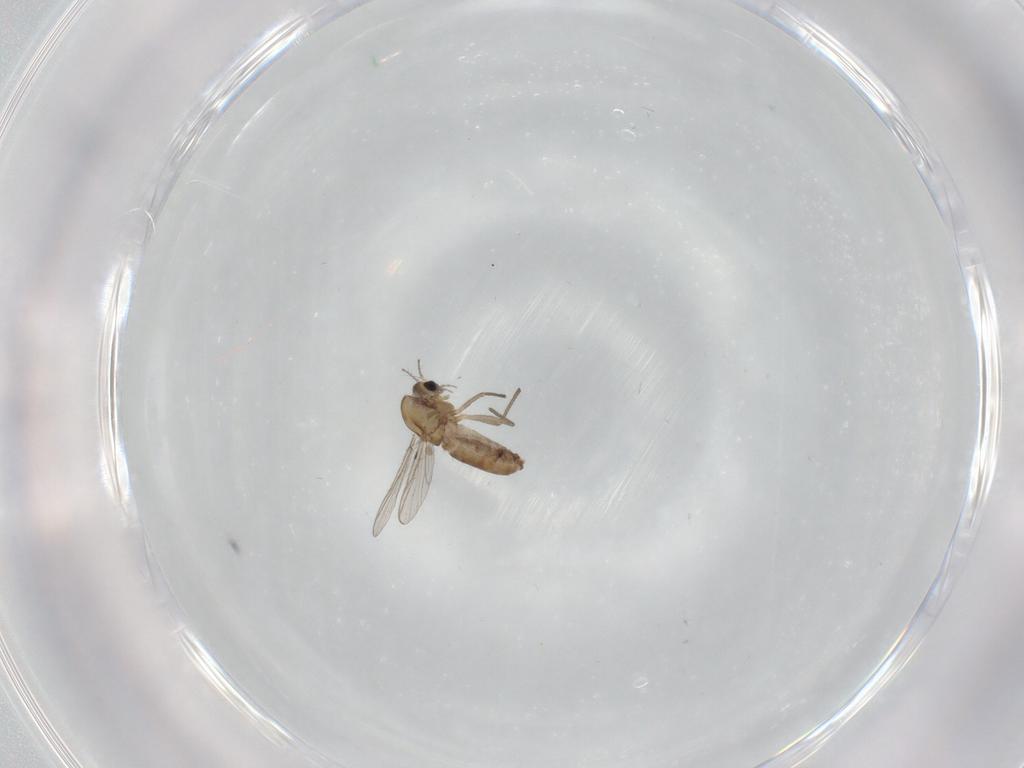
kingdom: Animalia
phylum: Arthropoda
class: Insecta
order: Diptera
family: Chironomidae
